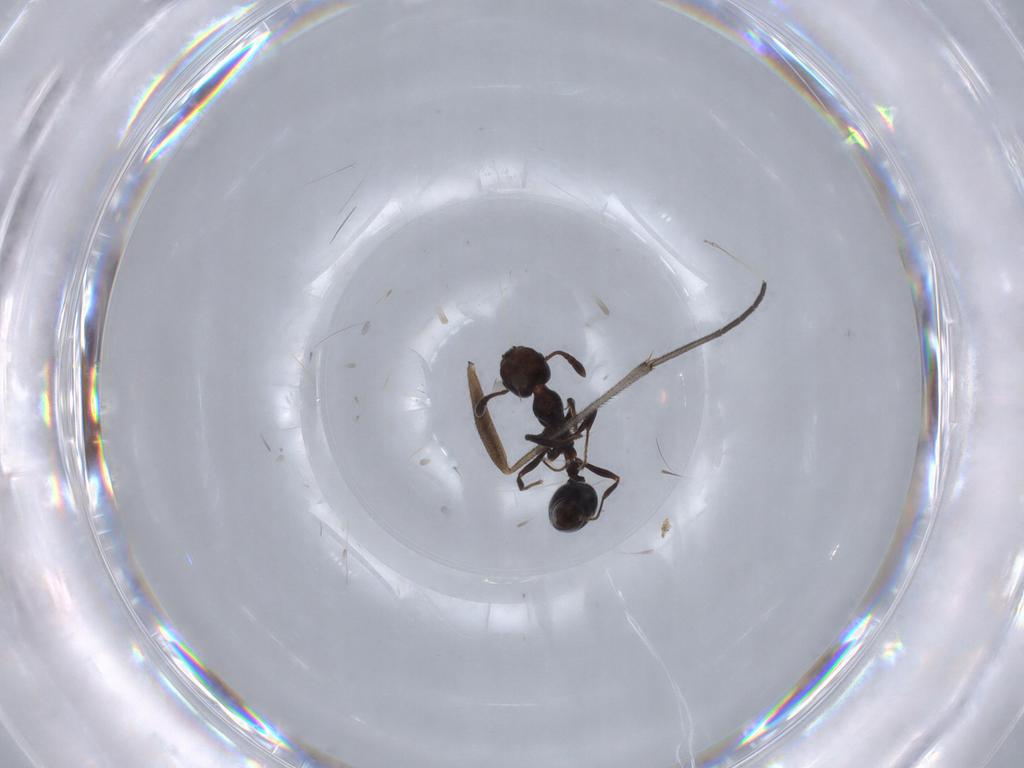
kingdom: Animalia
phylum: Arthropoda
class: Insecta
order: Hymenoptera
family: Formicidae
